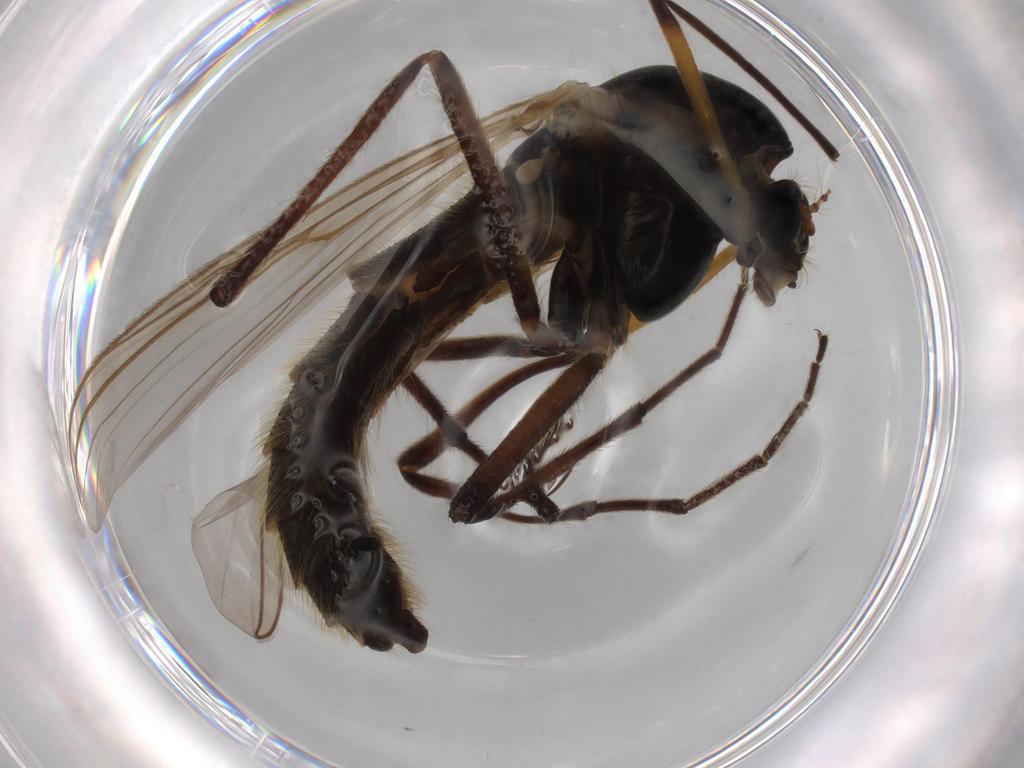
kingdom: Animalia
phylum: Arthropoda
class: Insecta
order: Diptera
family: Chironomidae
